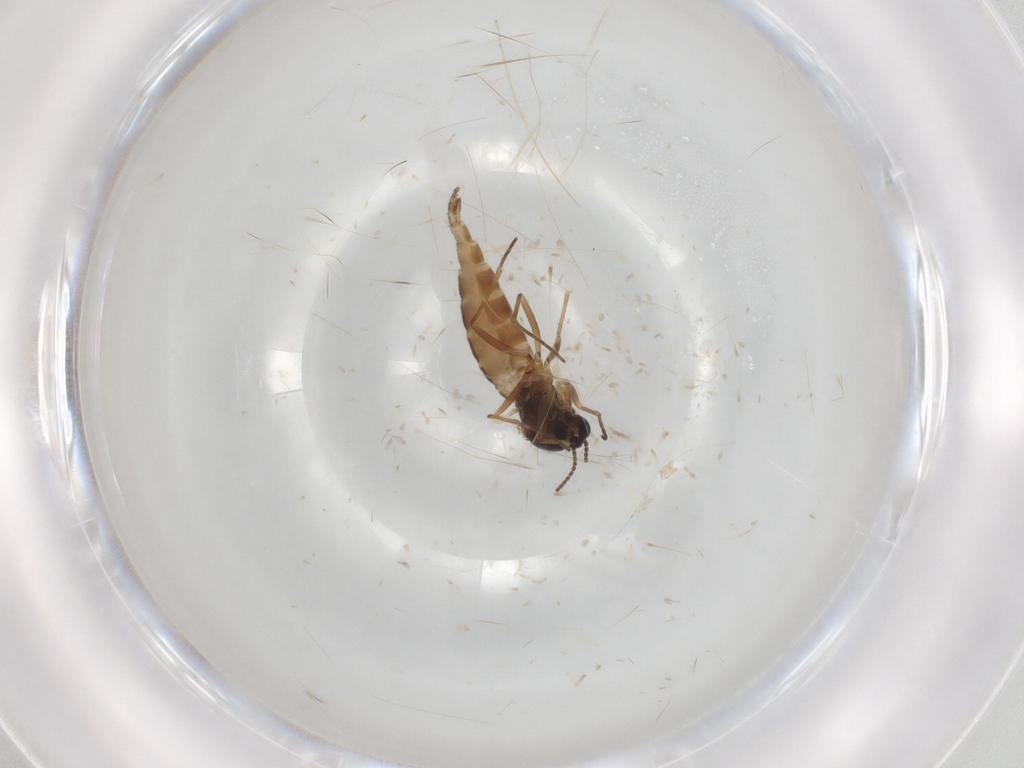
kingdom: Animalia
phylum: Arthropoda
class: Insecta
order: Diptera
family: Sciaridae
